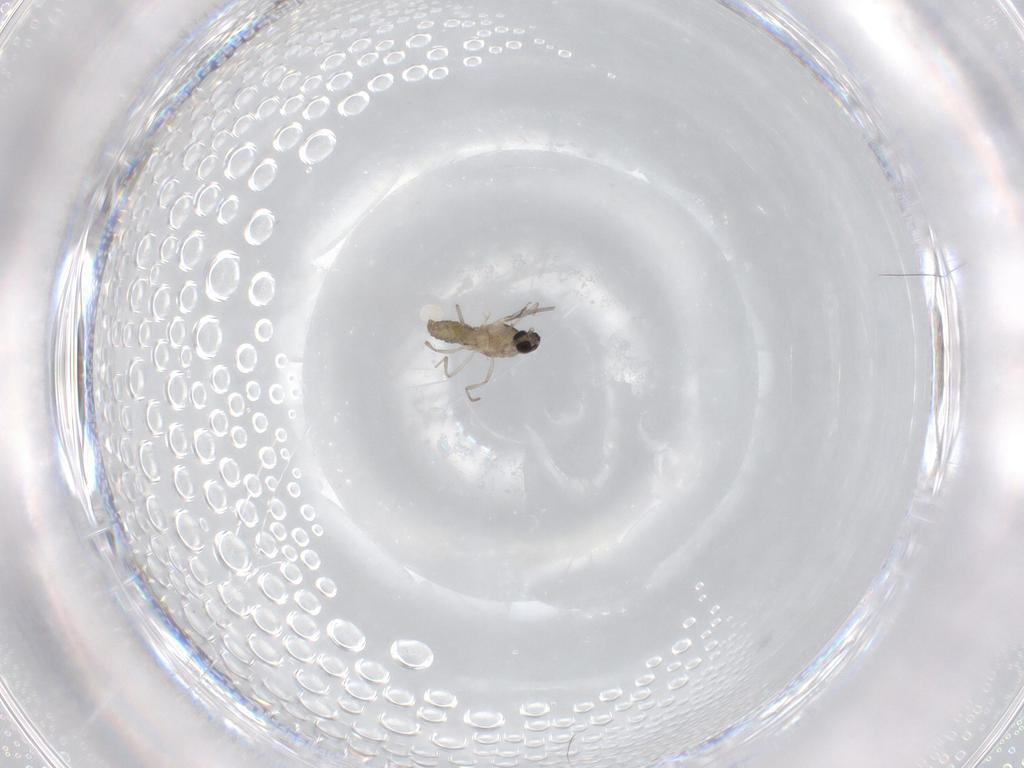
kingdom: Animalia
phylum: Arthropoda
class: Insecta
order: Diptera
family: Cecidomyiidae
